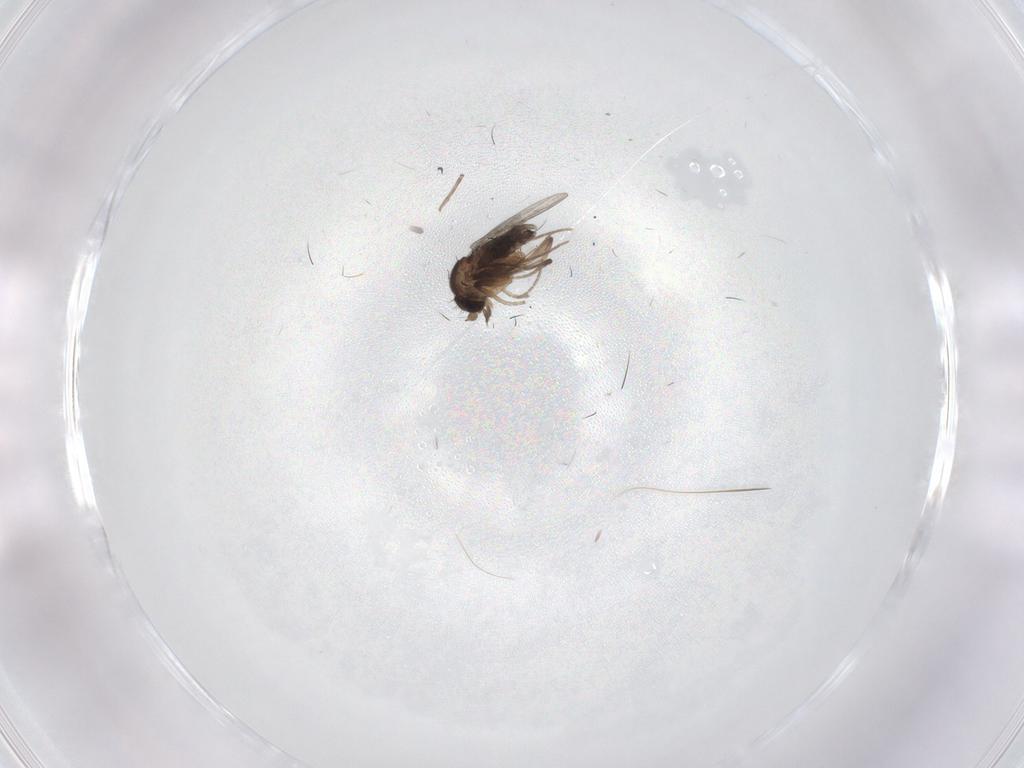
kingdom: Animalia
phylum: Arthropoda
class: Insecta
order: Diptera
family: Cecidomyiidae
